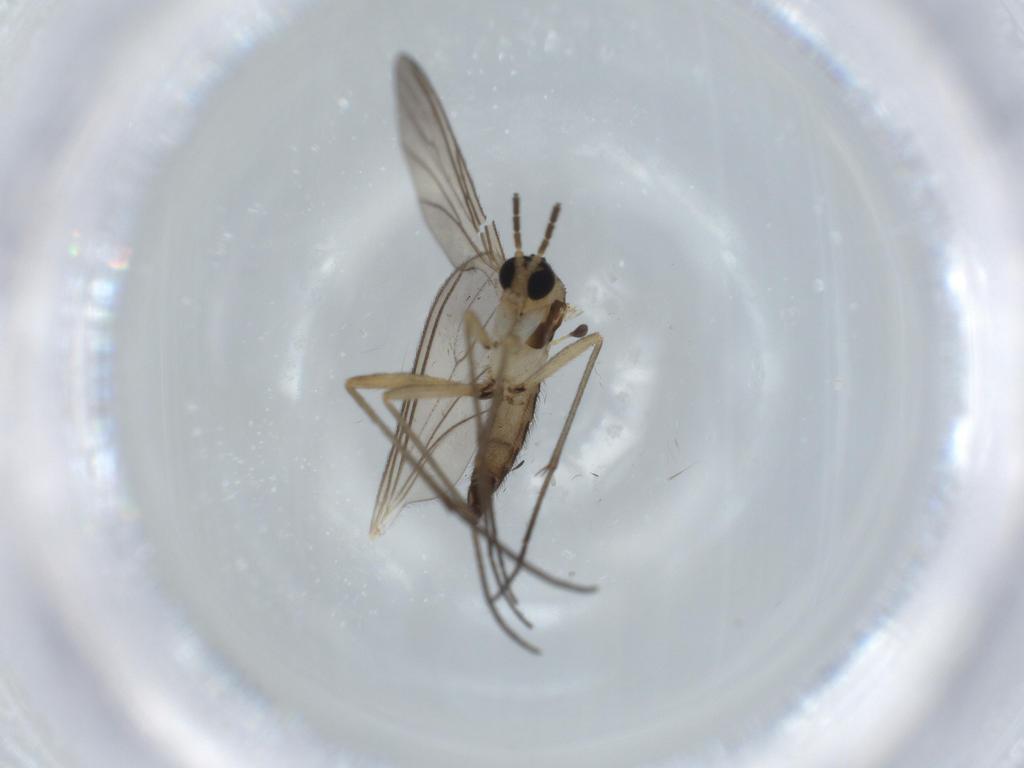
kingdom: Animalia
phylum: Arthropoda
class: Insecta
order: Diptera
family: Sciaridae
